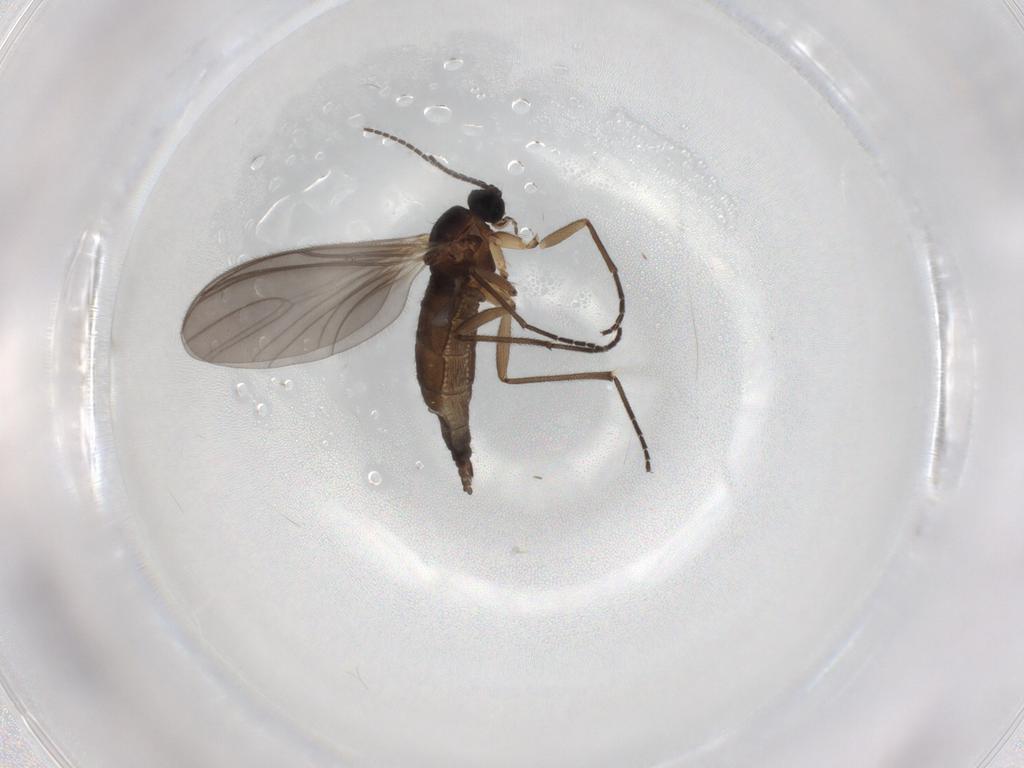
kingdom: Animalia
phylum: Arthropoda
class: Insecta
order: Diptera
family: Sciaridae
